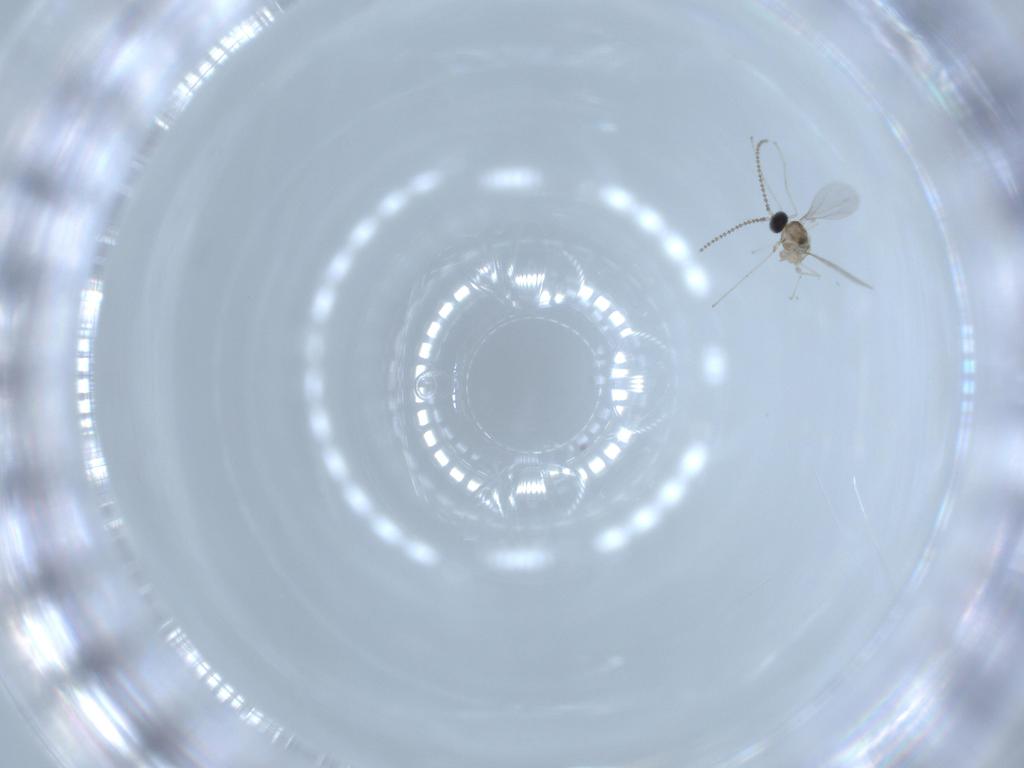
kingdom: Animalia
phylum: Arthropoda
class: Insecta
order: Diptera
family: Cecidomyiidae
